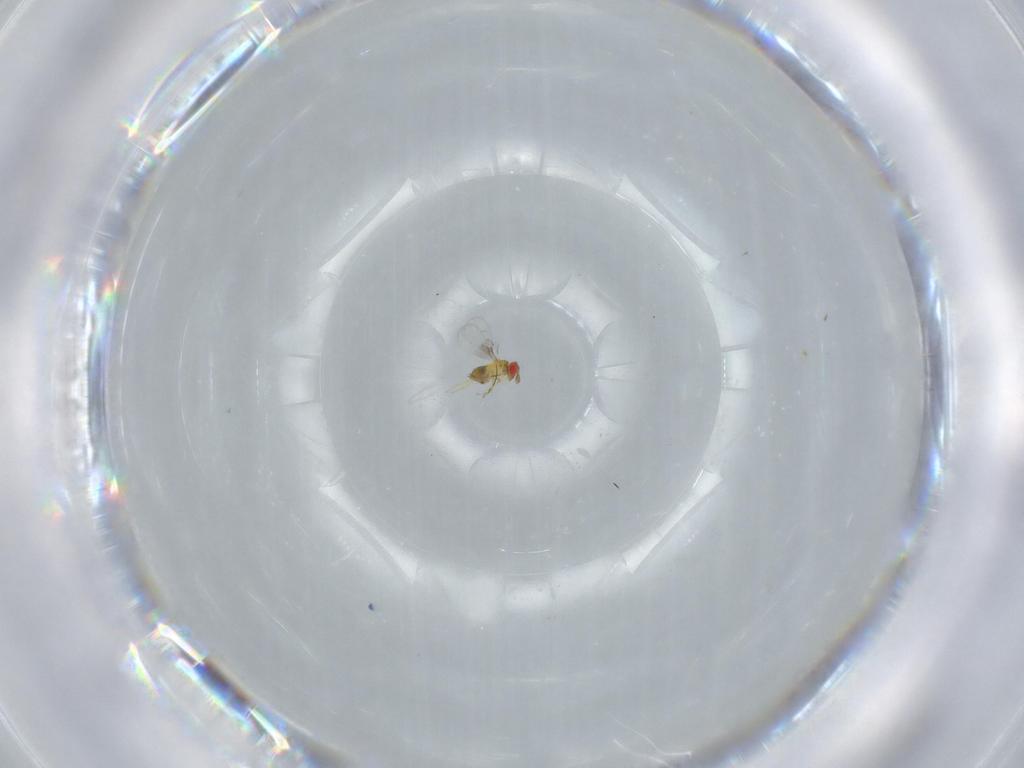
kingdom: Animalia
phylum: Arthropoda
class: Insecta
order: Hymenoptera
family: Trichogrammatidae
